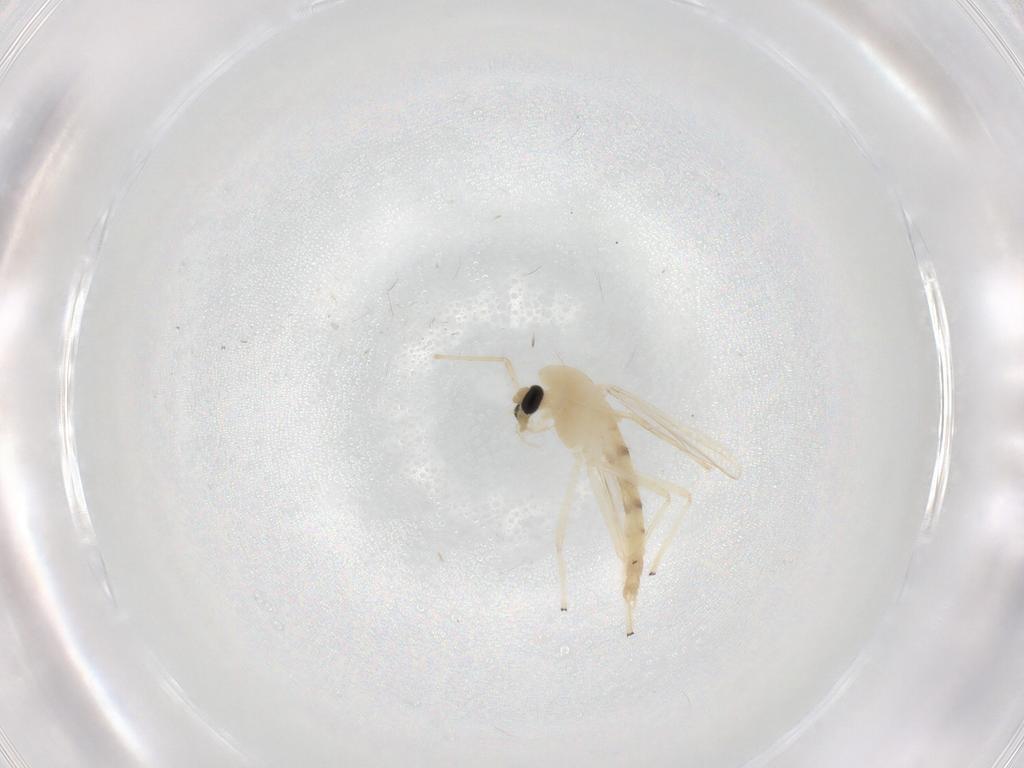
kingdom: Animalia
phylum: Arthropoda
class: Insecta
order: Diptera
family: Chironomidae
